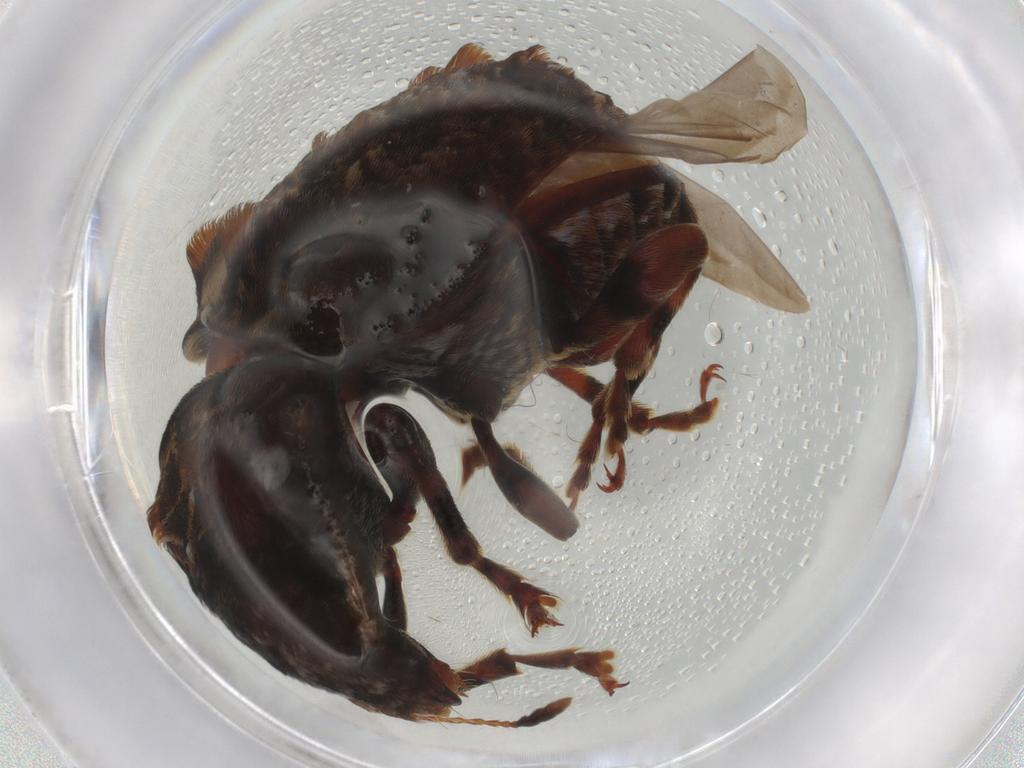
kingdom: Animalia
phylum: Arthropoda
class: Insecta
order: Coleoptera
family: Anthribidae
